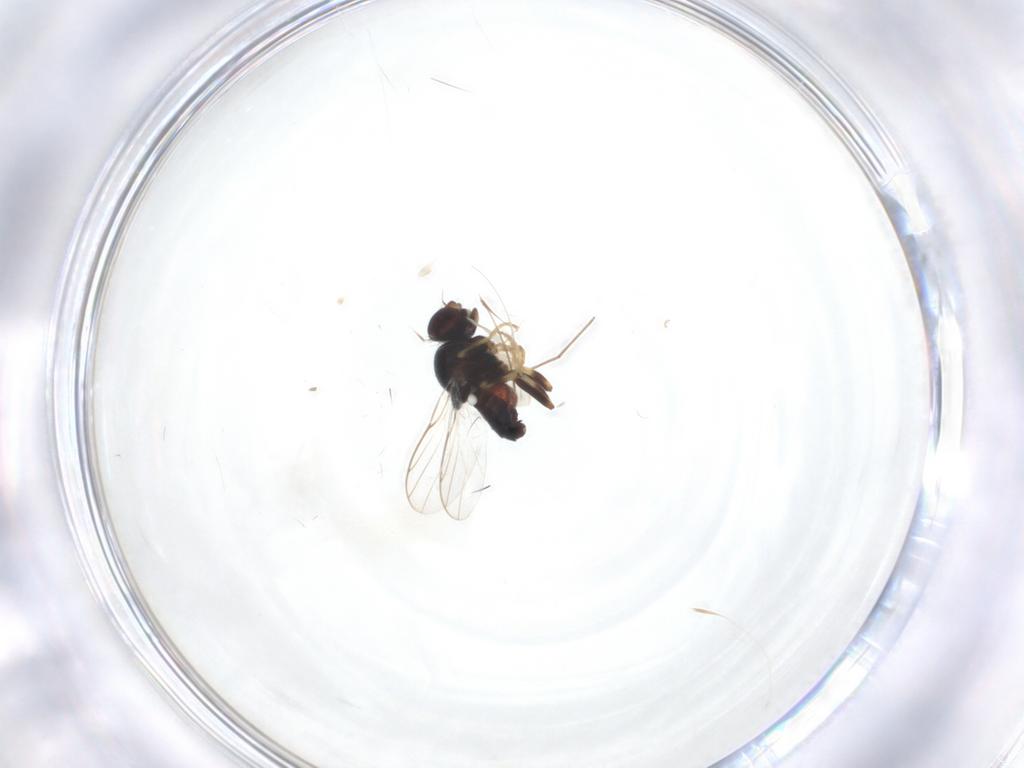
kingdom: Animalia
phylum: Arthropoda
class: Insecta
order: Diptera
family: Chloropidae
